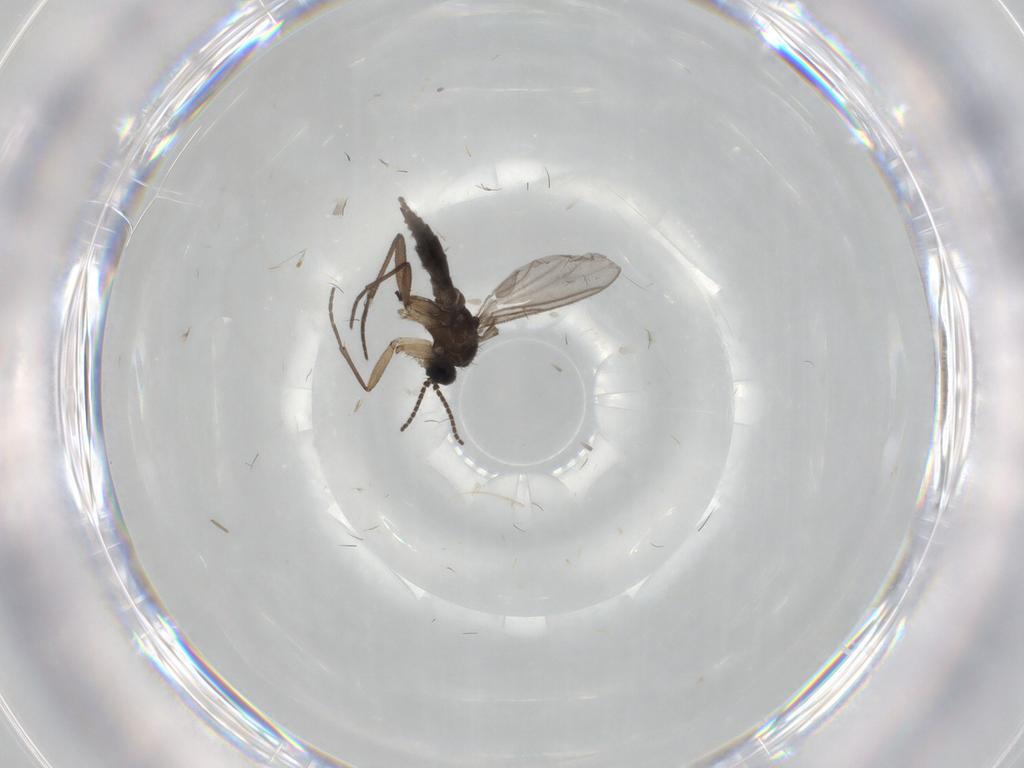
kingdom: Animalia
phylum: Arthropoda
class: Insecta
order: Diptera
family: Sciaridae
